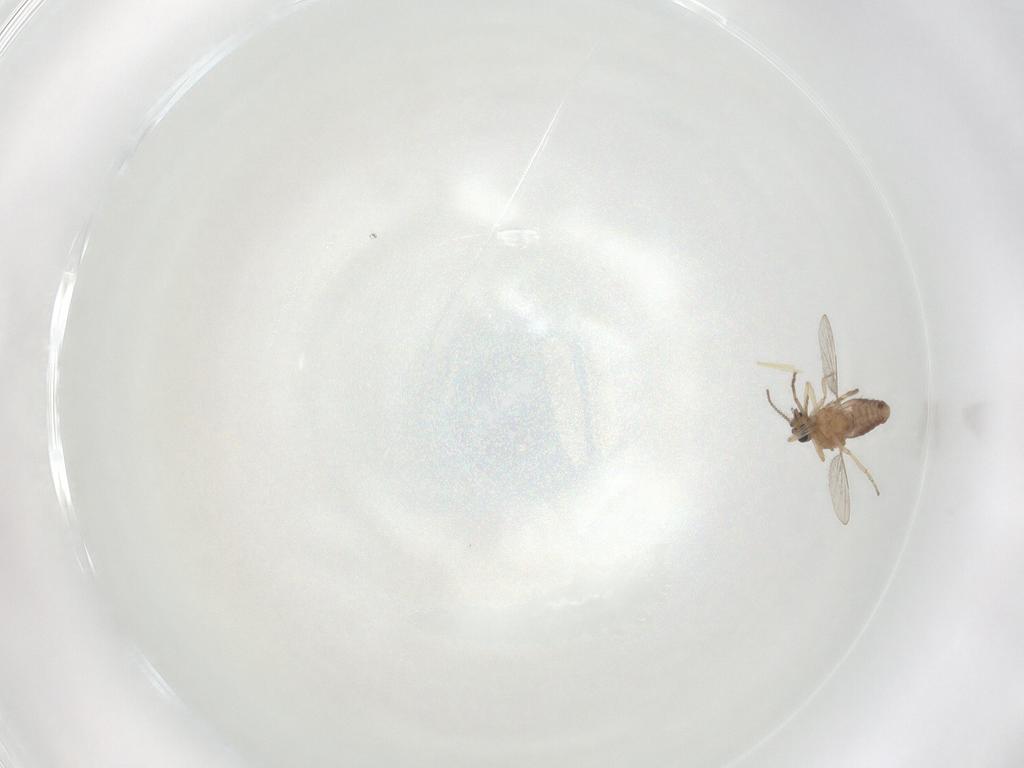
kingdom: Animalia
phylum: Arthropoda
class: Insecta
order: Diptera
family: Cecidomyiidae
